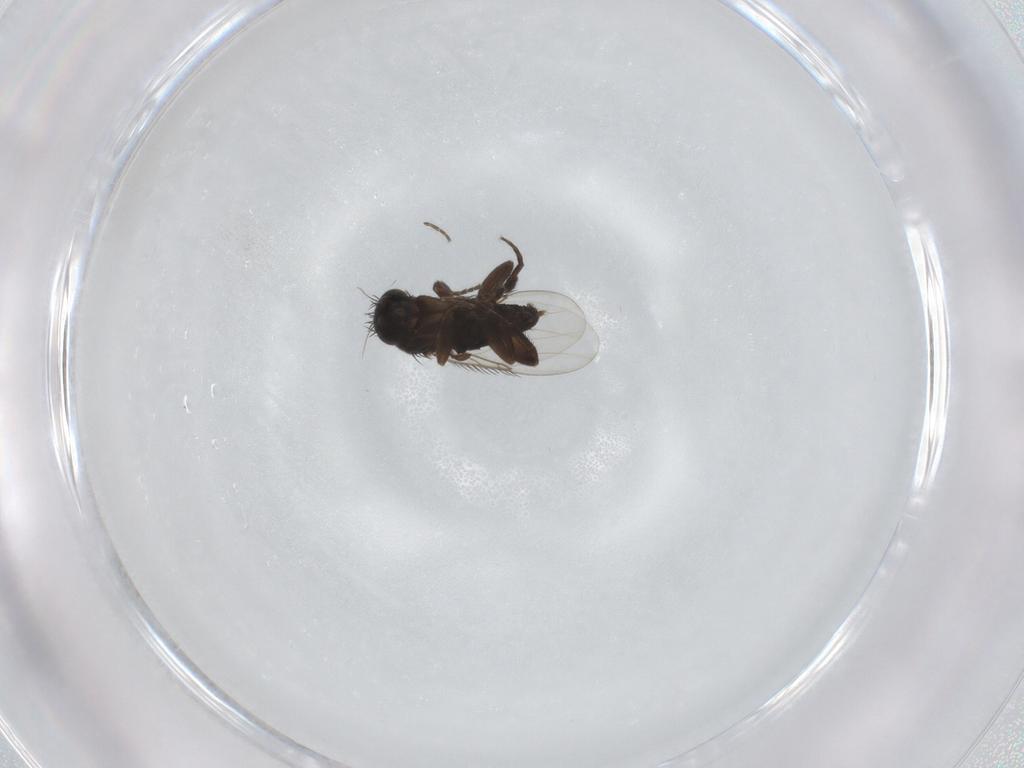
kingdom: Animalia
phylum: Arthropoda
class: Insecta
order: Diptera
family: Phoridae
